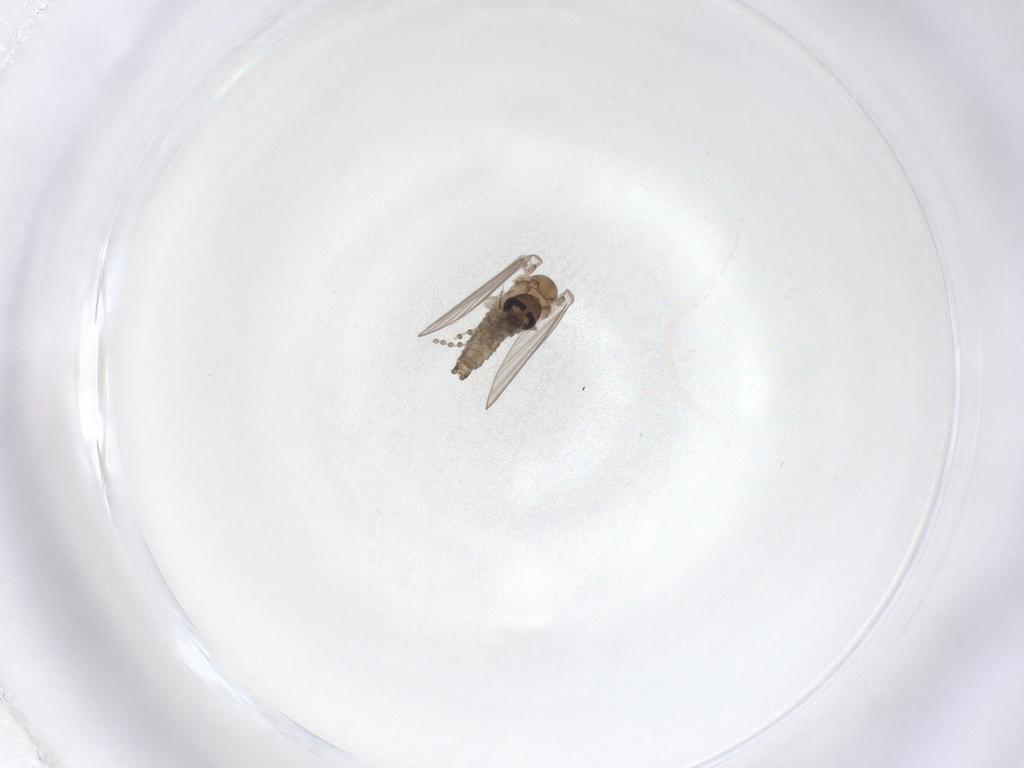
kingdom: Animalia
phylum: Arthropoda
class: Insecta
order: Diptera
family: Psychodidae
